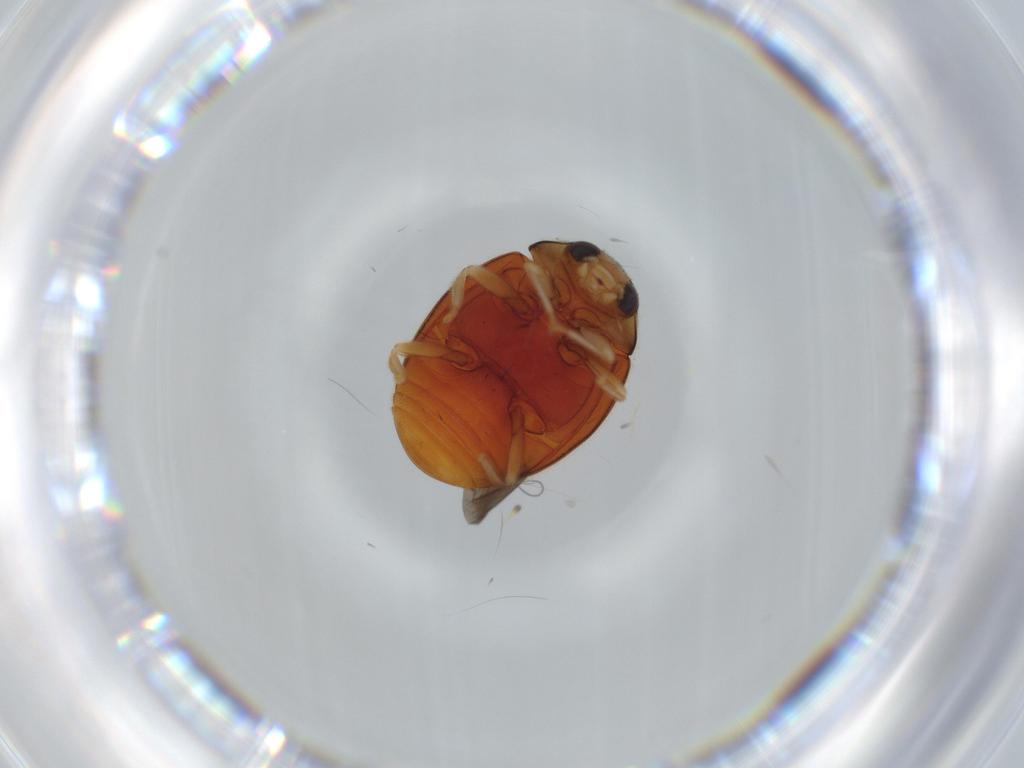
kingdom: Animalia
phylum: Arthropoda
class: Insecta
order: Coleoptera
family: Coccinellidae
